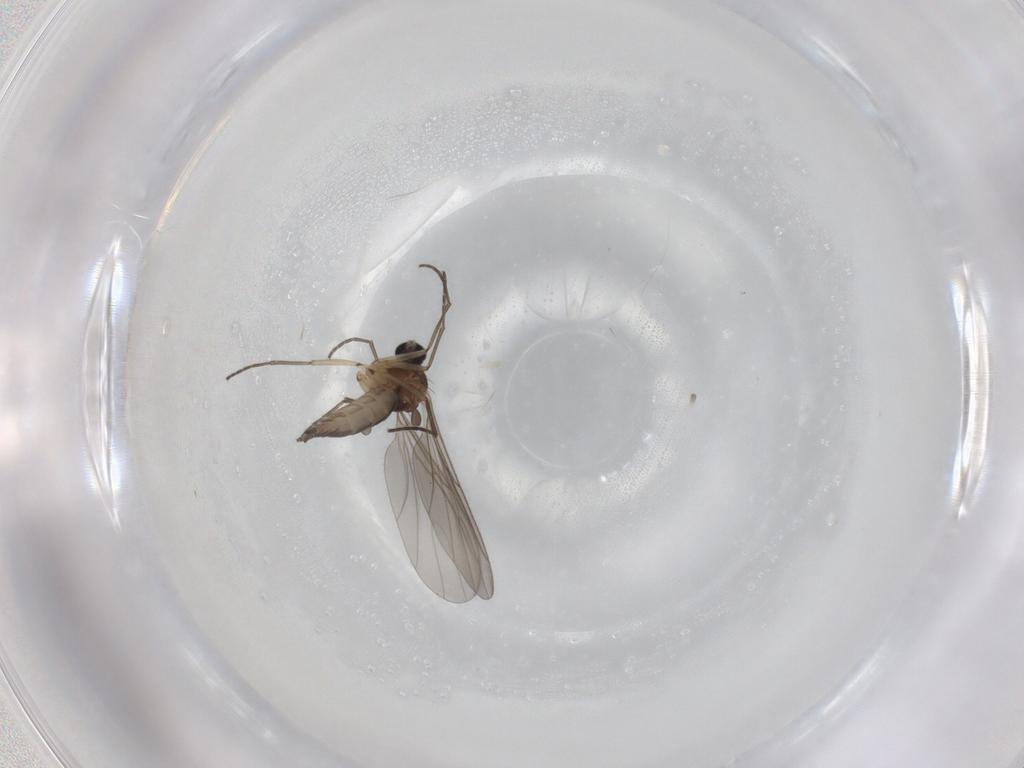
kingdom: Animalia
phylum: Arthropoda
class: Insecta
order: Diptera
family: Sciaridae
